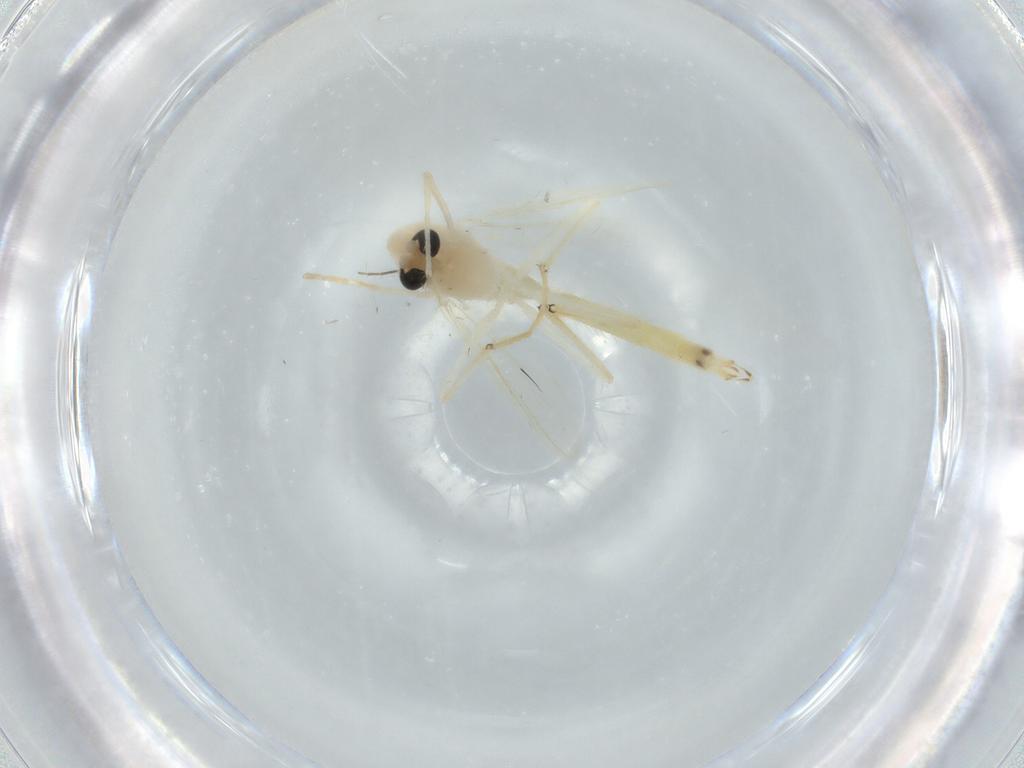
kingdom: Animalia
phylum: Arthropoda
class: Insecta
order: Diptera
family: Chironomidae
